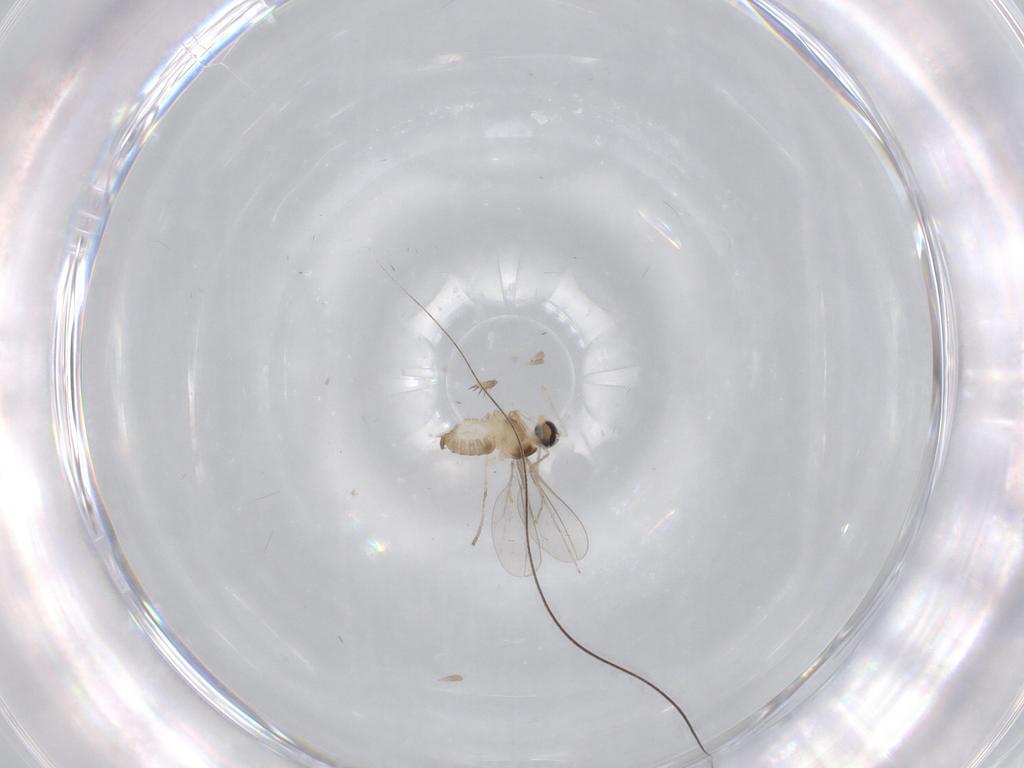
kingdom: Animalia
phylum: Arthropoda
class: Insecta
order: Diptera
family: Cecidomyiidae
